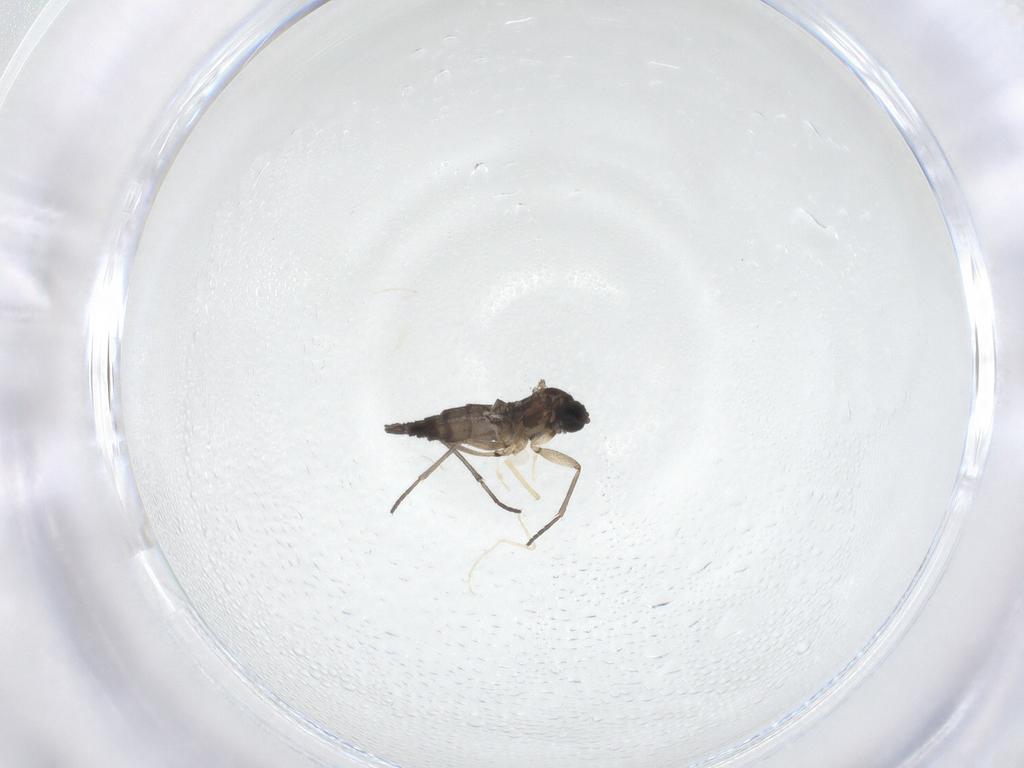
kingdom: Animalia
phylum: Arthropoda
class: Insecta
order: Diptera
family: Sciaridae
